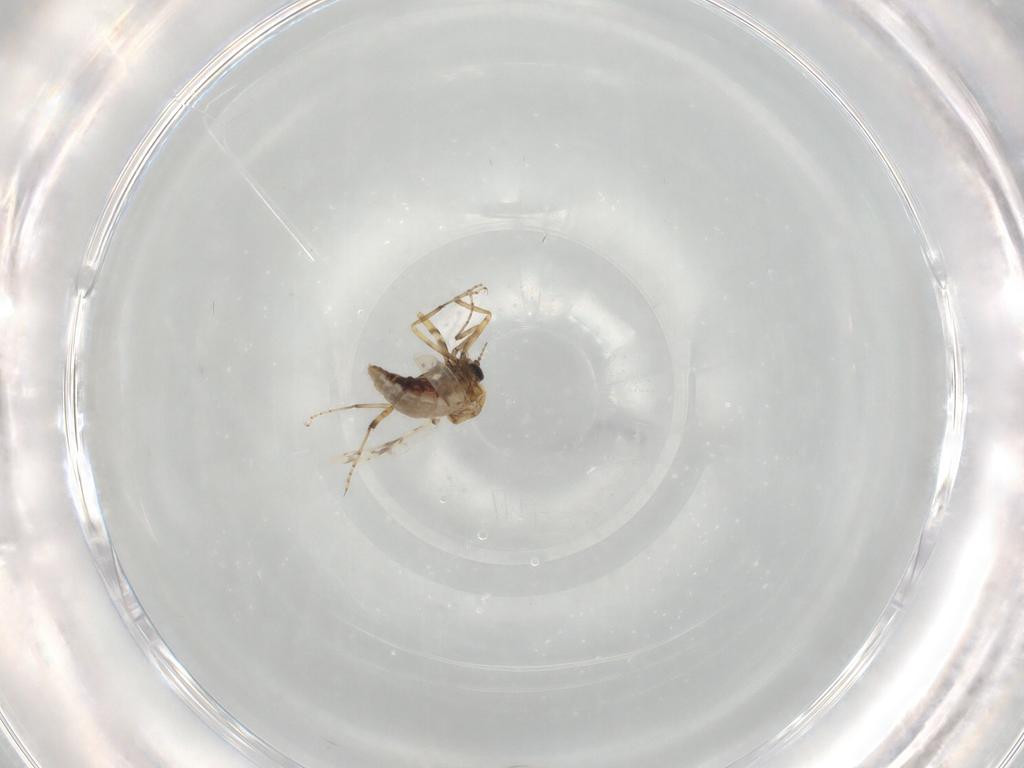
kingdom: Animalia
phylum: Arthropoda
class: Insecta
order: Diptera
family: Ceratopogonidae
